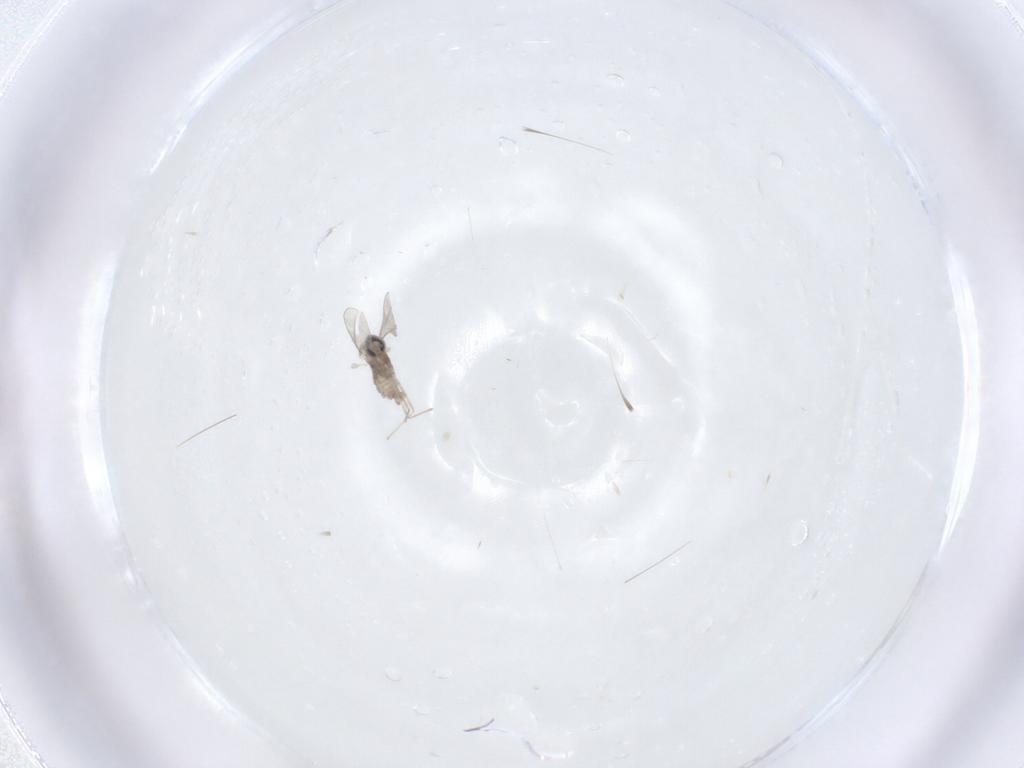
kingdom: Animalia
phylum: Arthropoda
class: Insecta
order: Diptera
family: Cecidomyiidae
